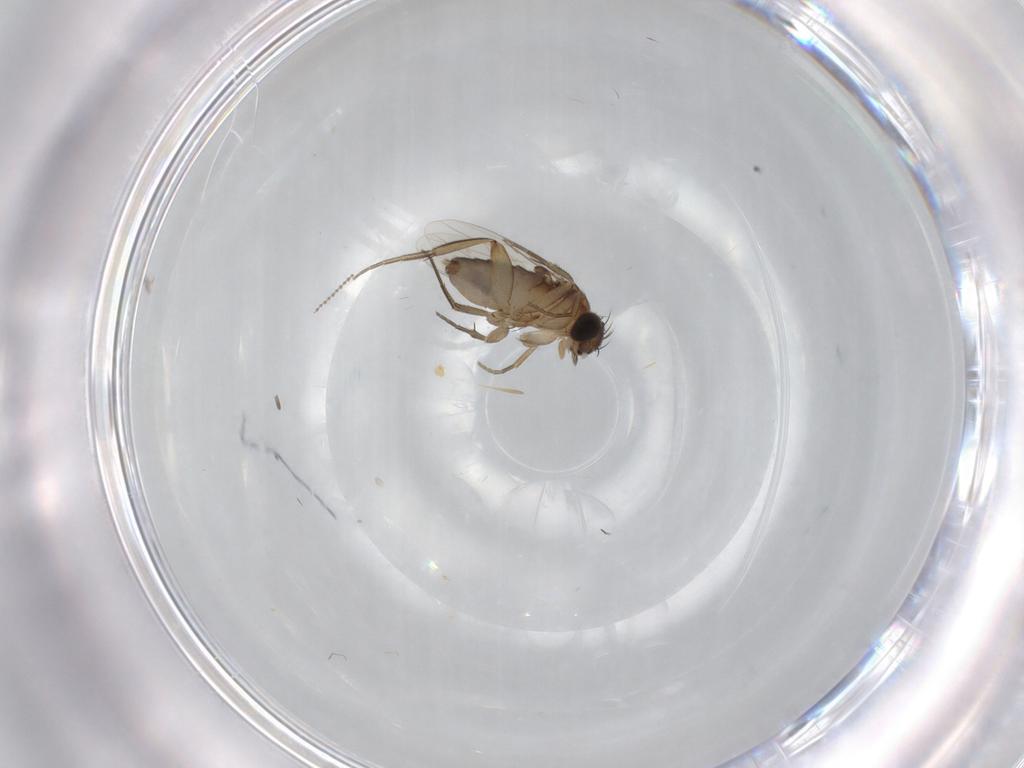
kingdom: Animalia
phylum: Arthropoda
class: Insecta
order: Diptera
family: Phoridae
